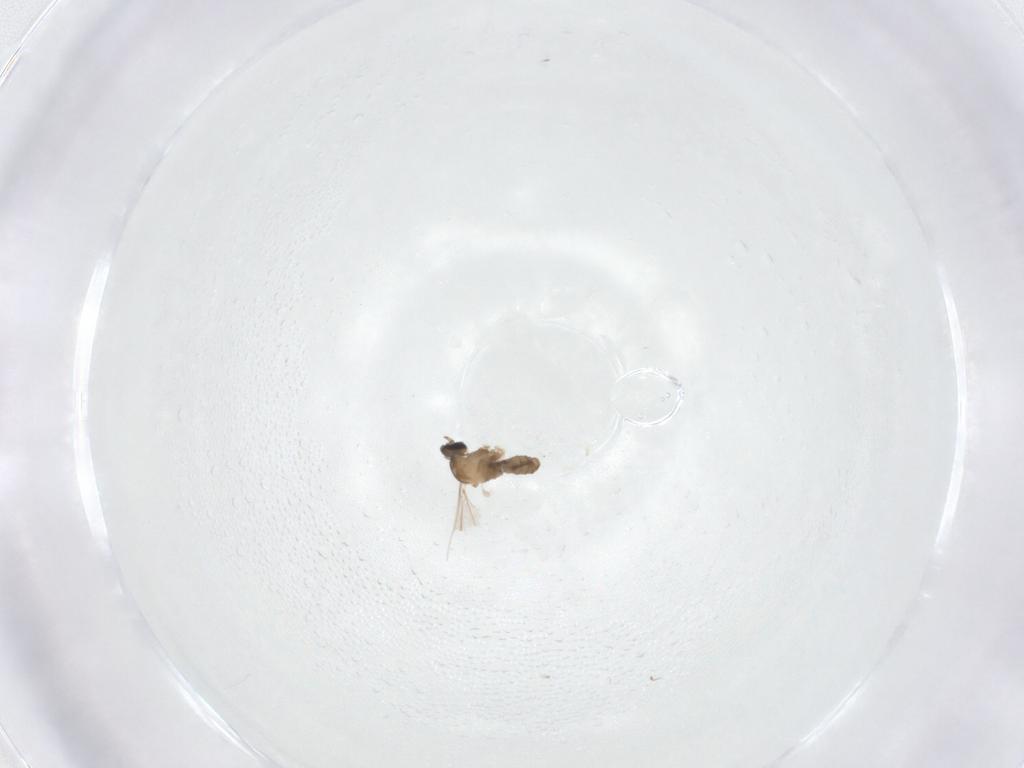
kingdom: Animalia
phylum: Arthropoda
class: Insecta
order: Diptera
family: Cecidomyiidae
